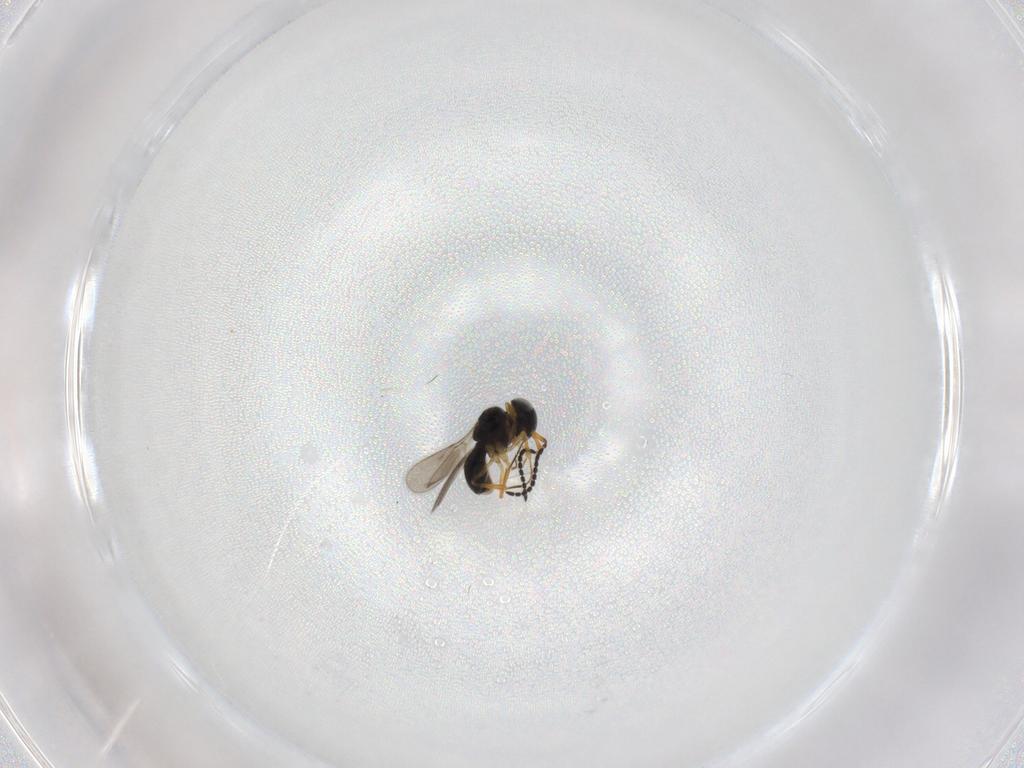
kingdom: Animalia
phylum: Arthropoda
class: Insecta
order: Hymenoptera
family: Scelionidae
